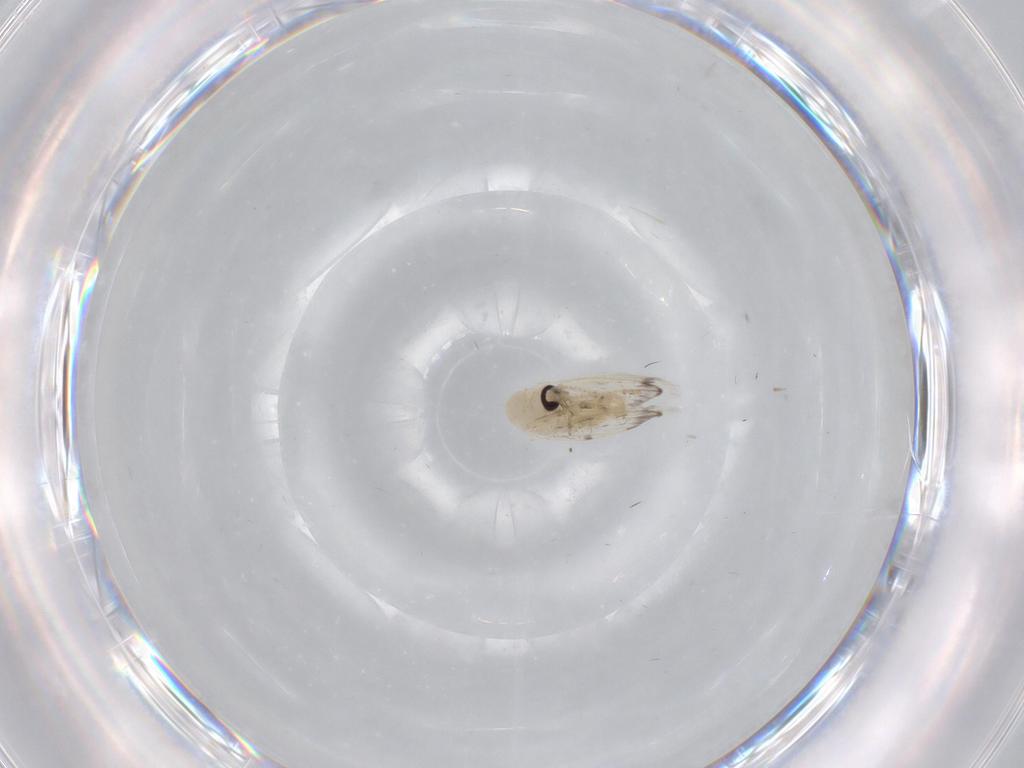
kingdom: Animalia
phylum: Arthropoda
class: Insecta
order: Diptera
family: Psychodidae
